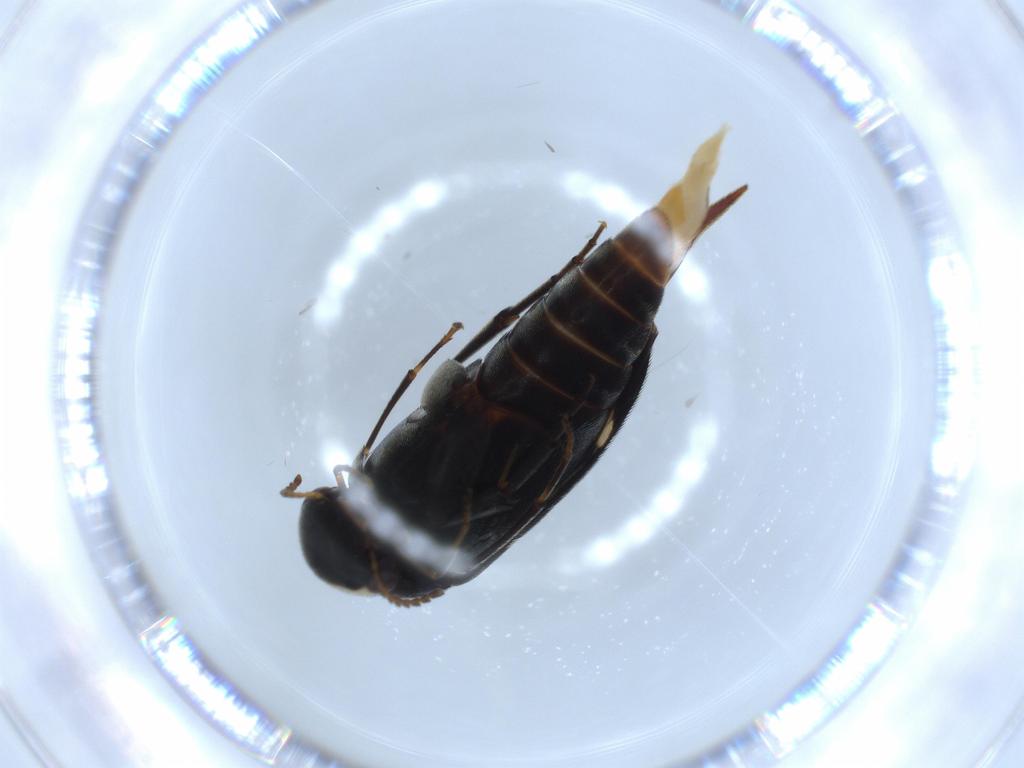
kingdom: Animalia
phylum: Arthropoda
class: Insecta
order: Coleoptera
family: Mordellidae
